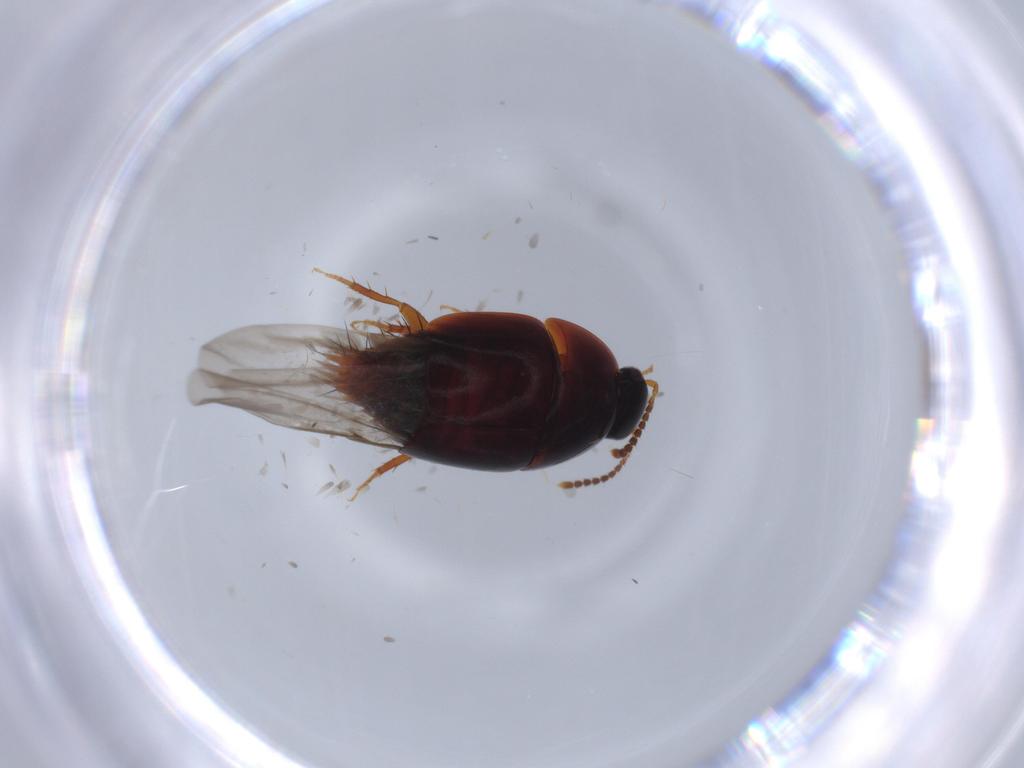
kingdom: Animalia
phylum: Arthropoda
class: Insecta
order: Coleoptera
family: Staphylinidae
